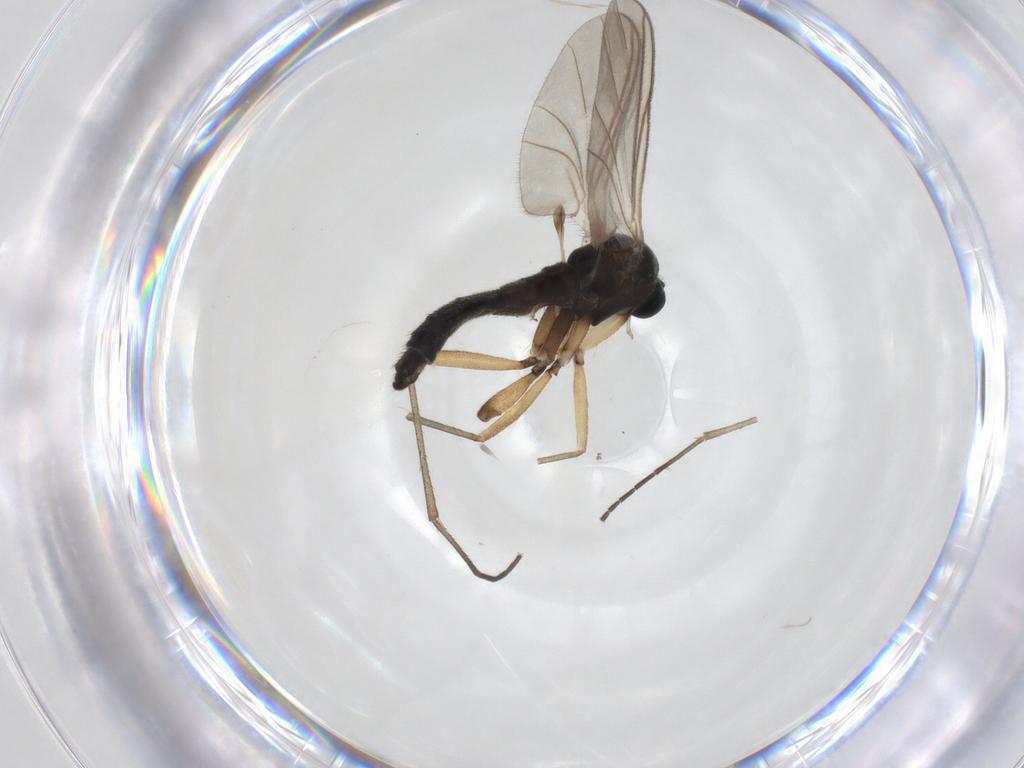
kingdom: Animalia
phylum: Arthropoda
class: Insecta
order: Diptera
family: Sciaridae
